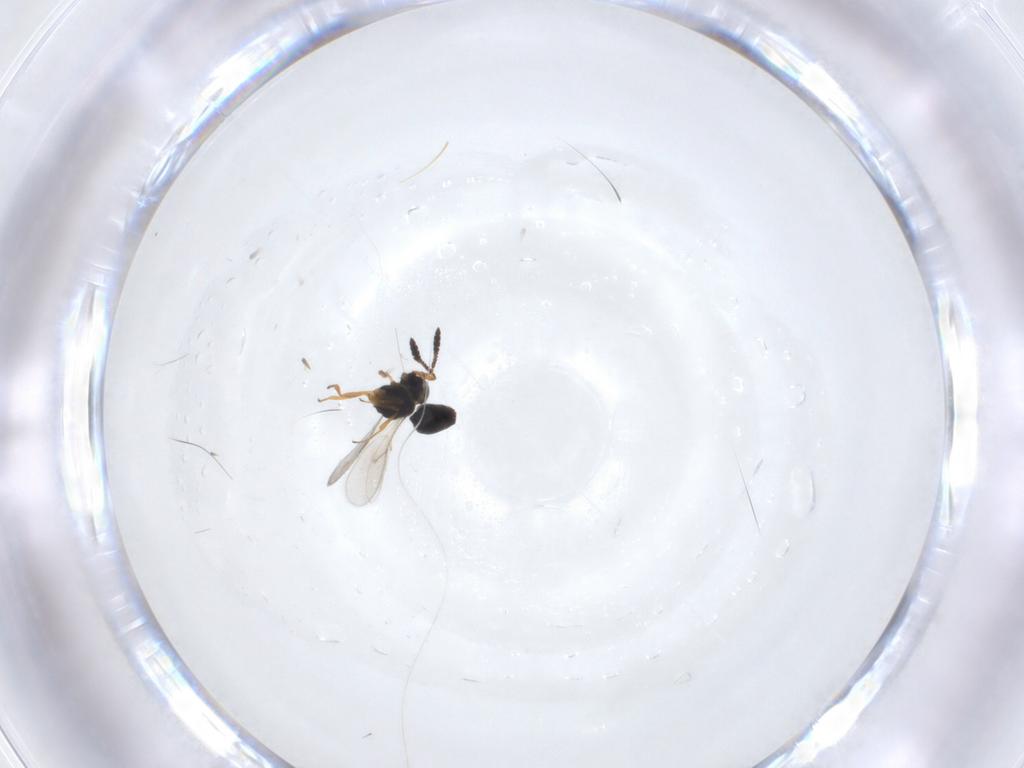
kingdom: Animalia
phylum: Arthropoda
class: Insecta
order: Hymenoptera
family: Scelionidae
